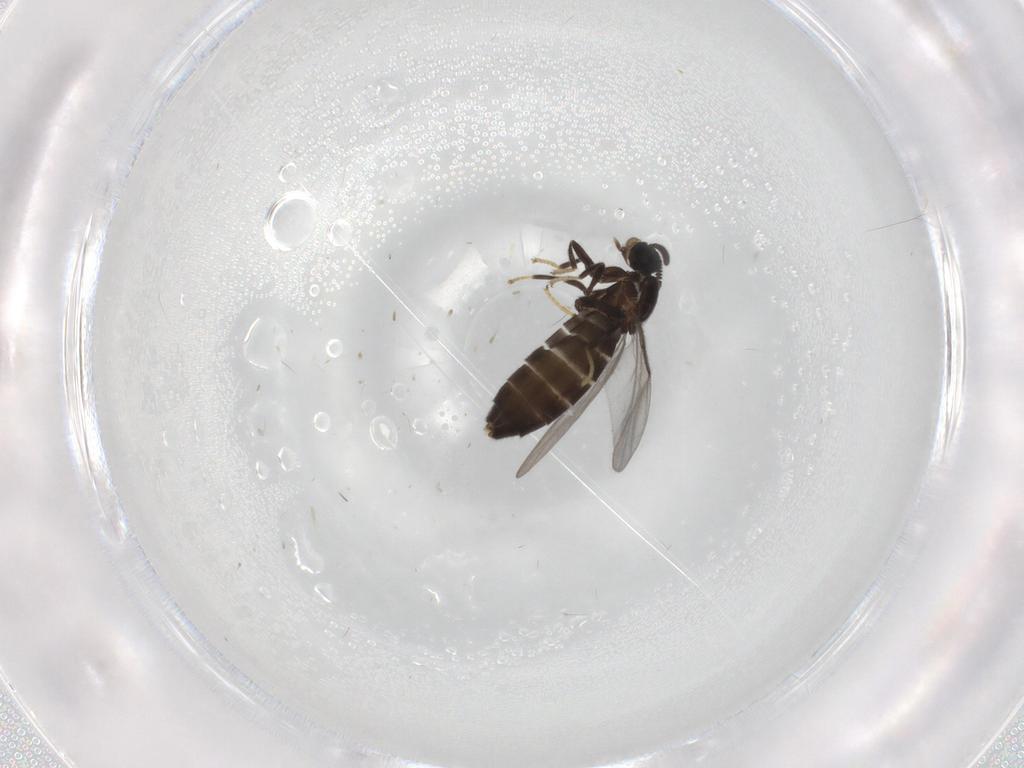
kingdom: Animalia
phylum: Arthropoda
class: Insecta
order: Diptera
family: Scatopsidae
